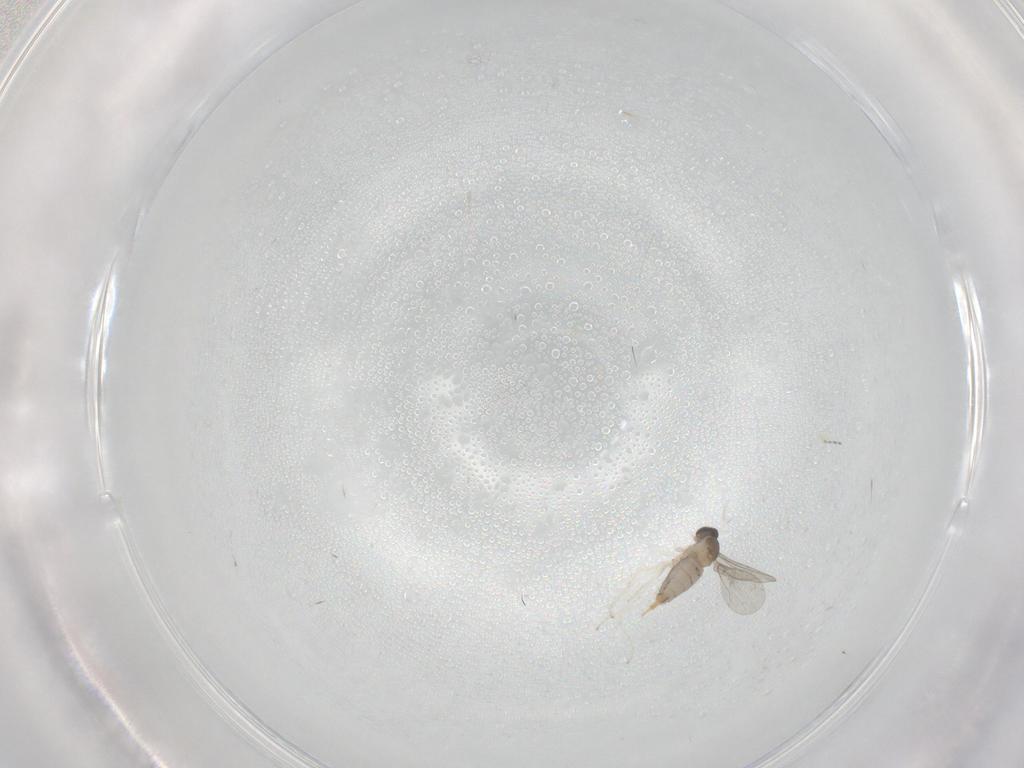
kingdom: Animalia
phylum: Arthropoda
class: Insecta
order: Diptera
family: Cecidomyiidae
